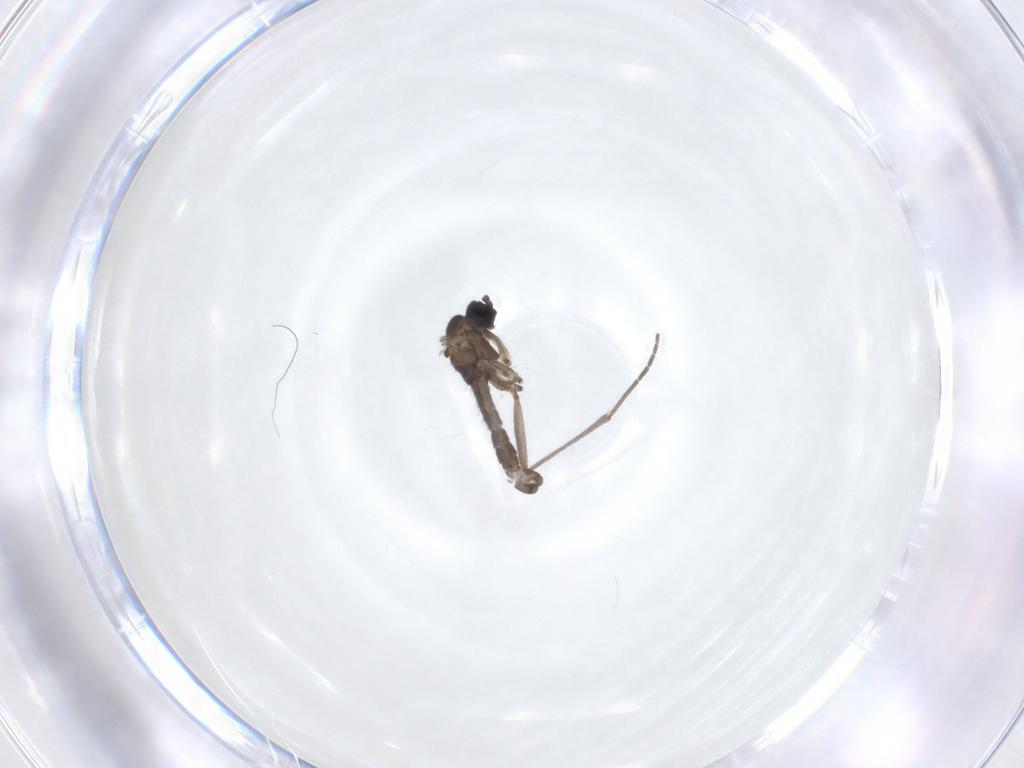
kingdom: Animalia
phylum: Arthropoda
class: Insecta
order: Diptera
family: Sciaridae
